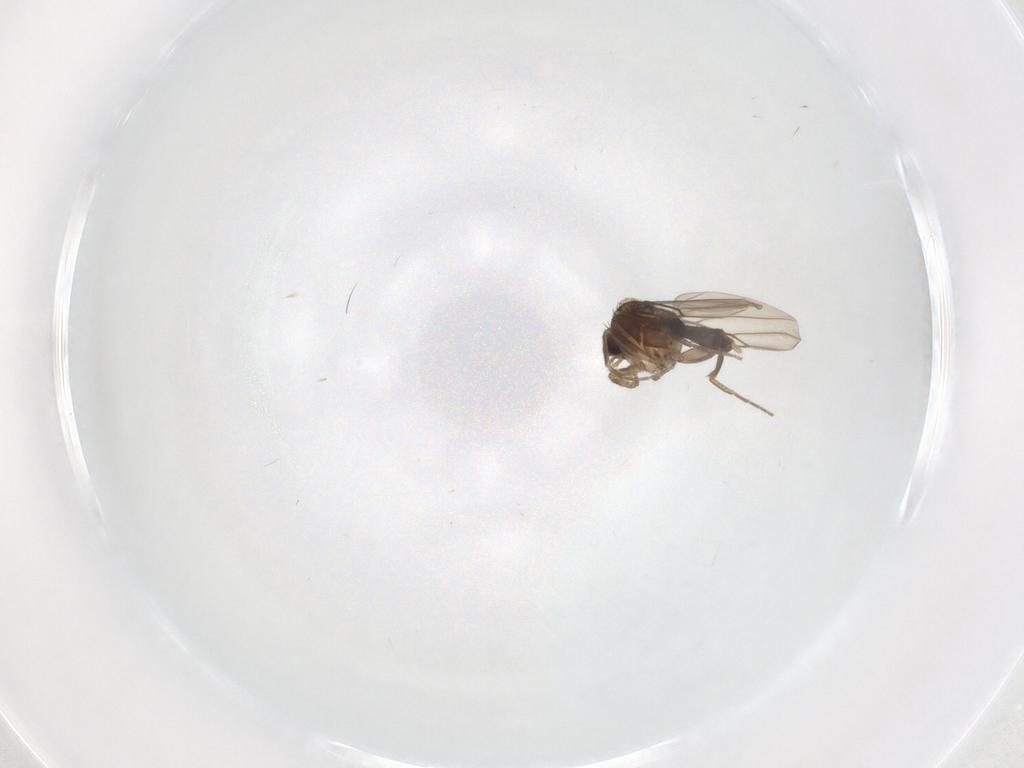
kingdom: Animalia
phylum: Arthropoda
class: Insecta
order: Diptera
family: Phoridae
